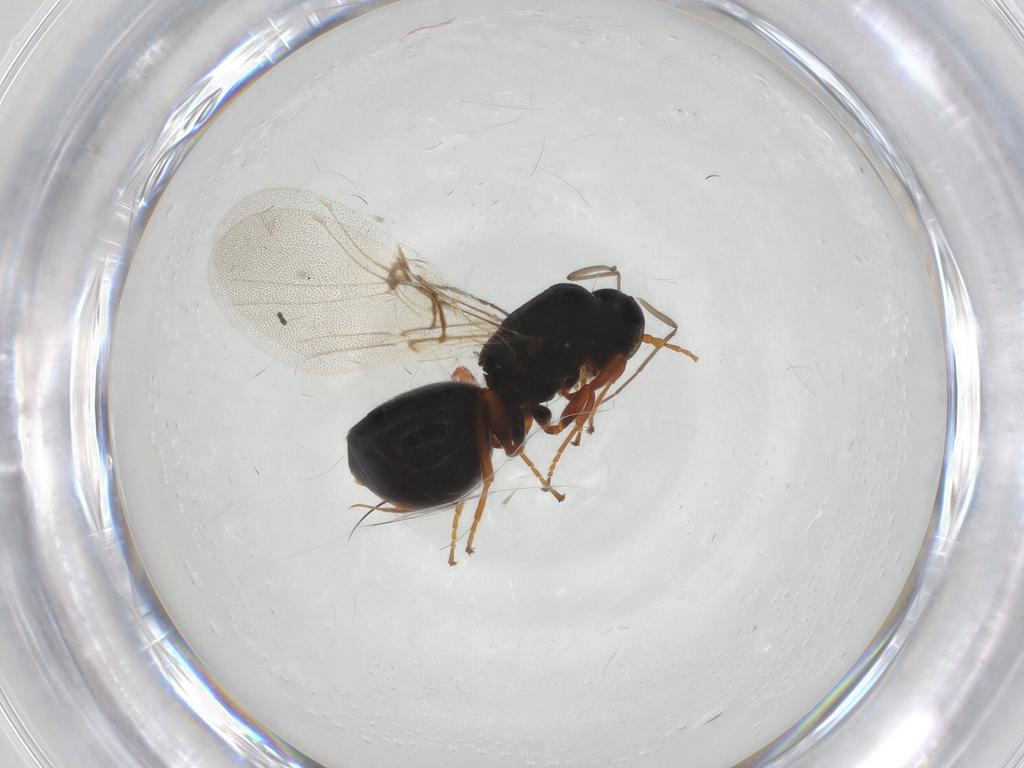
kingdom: Animalia
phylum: Arthropoda
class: Insecta
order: Hymenoptera
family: Cynipidae
